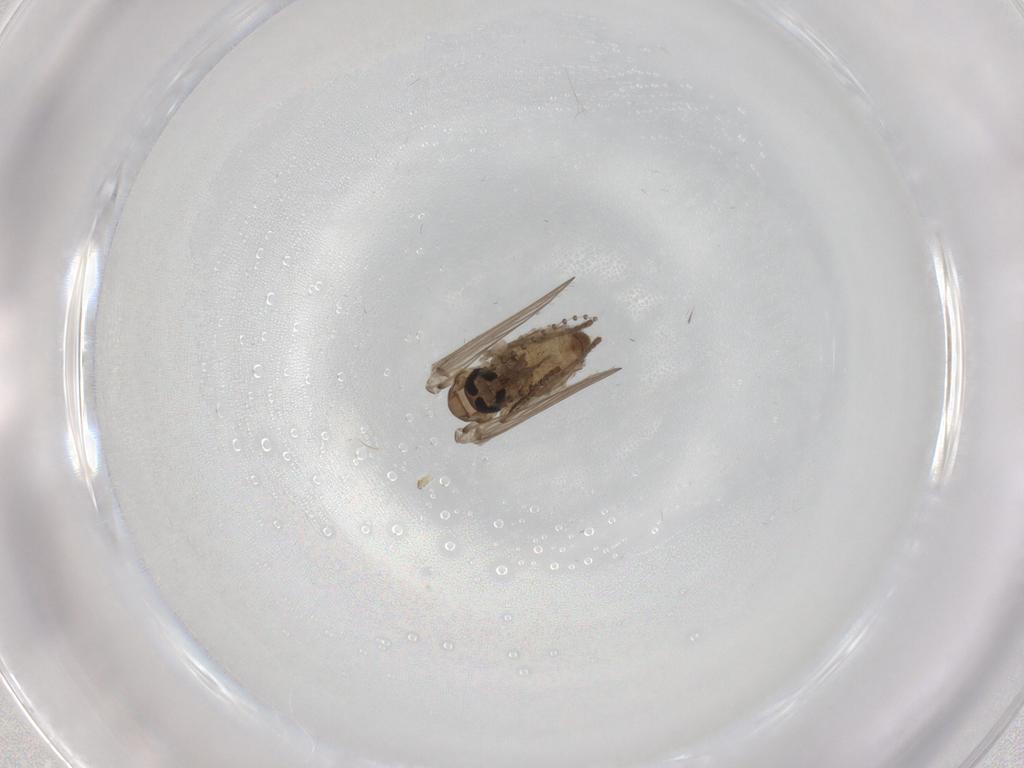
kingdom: Animalia
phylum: Arthropoda
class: Insecta
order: Diptera
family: Psychodidae
